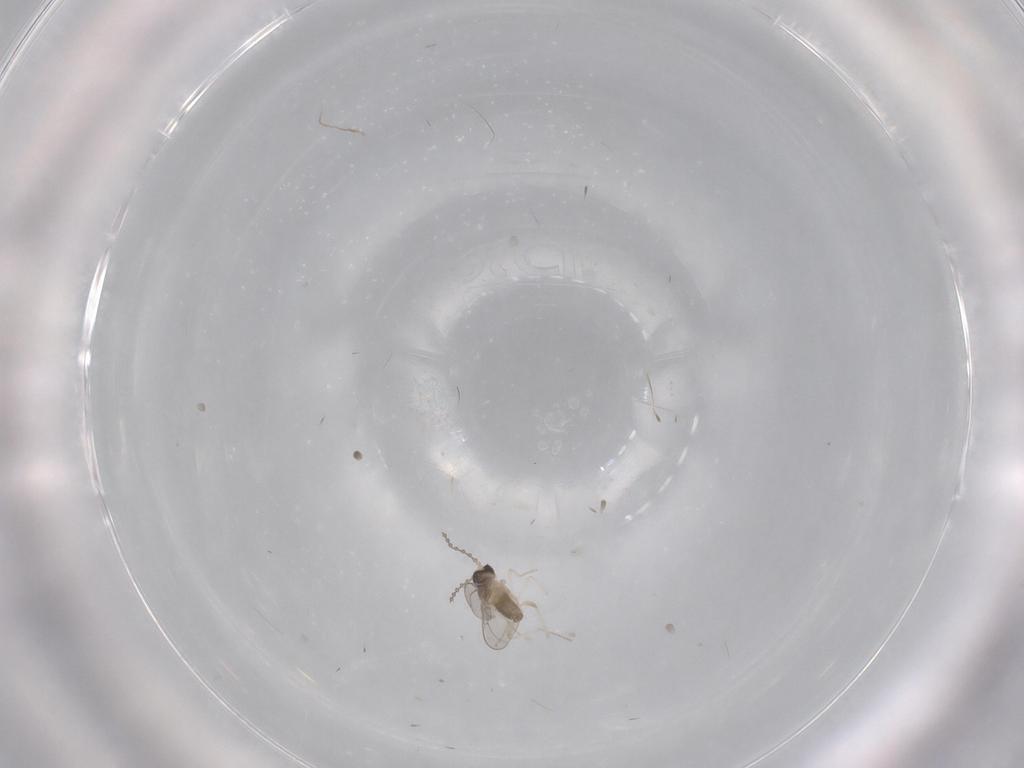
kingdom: Animalia
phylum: Arthropoda
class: Insecta
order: Diptera
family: Cecidomyiidae
